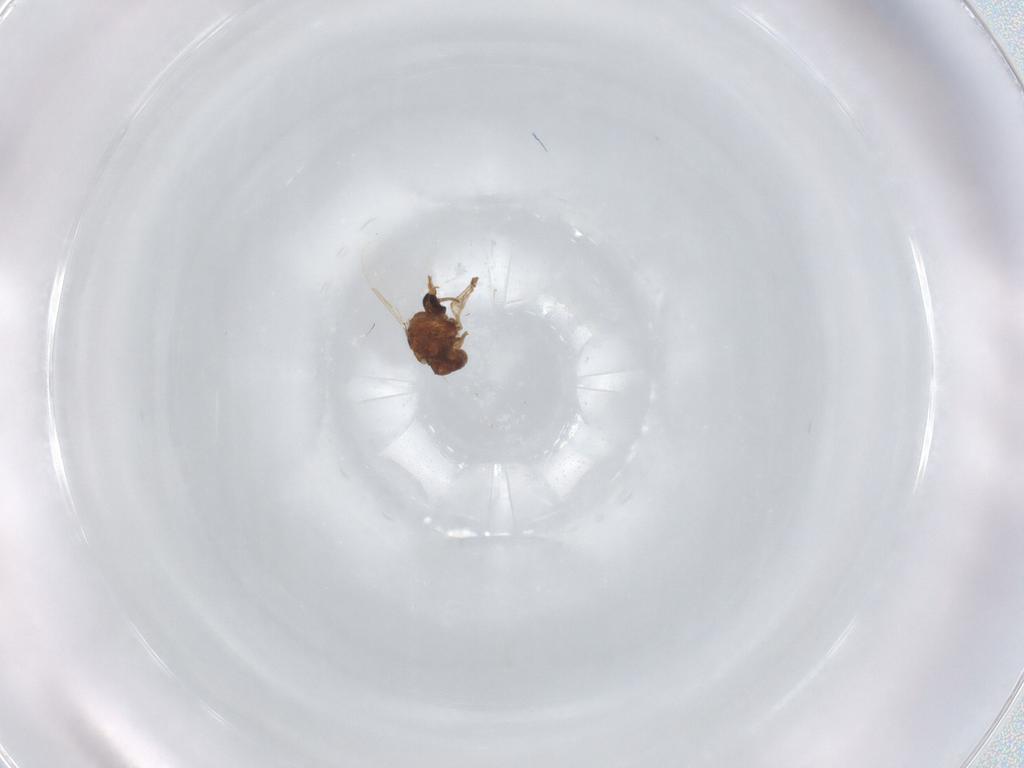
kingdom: Animalia
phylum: Arthropoda
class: Insecta
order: Diptera
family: Ceratopogonidae
